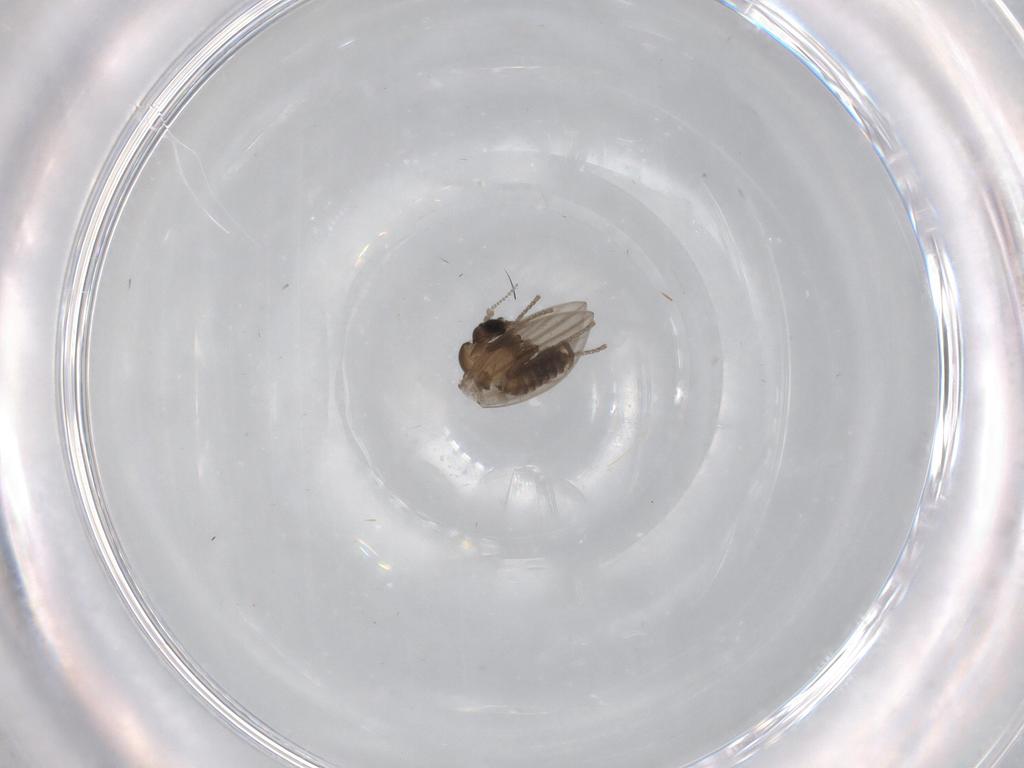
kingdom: Animalia
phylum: Arthropoda
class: Insecta
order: Diptera
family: Psychodidae
